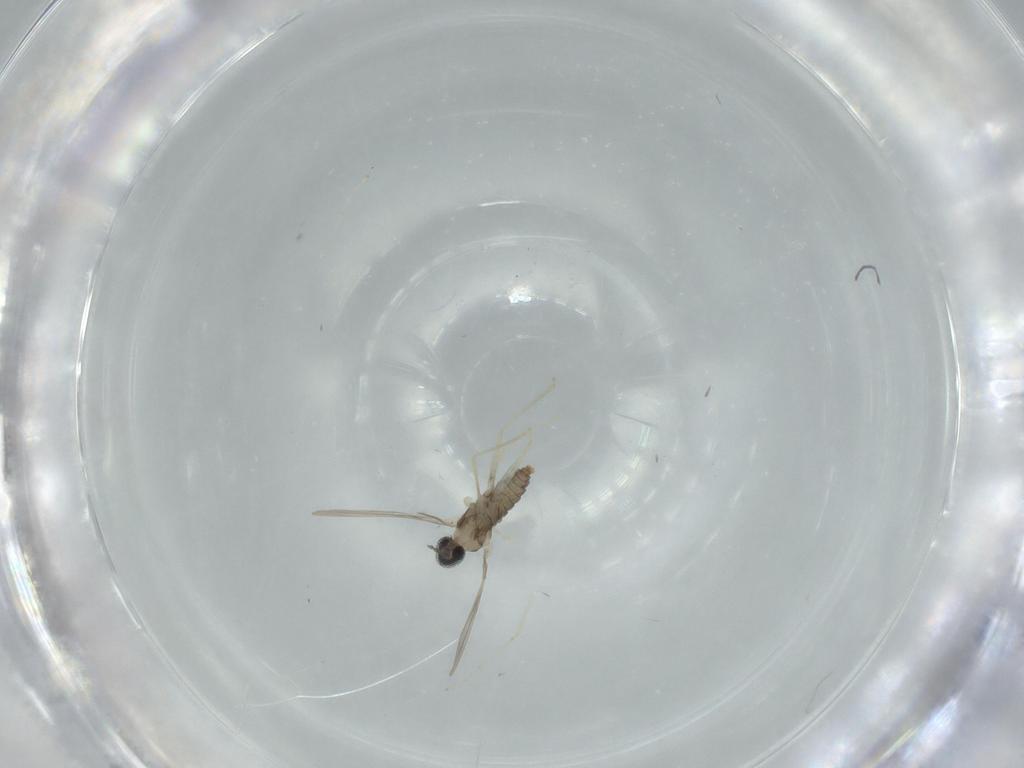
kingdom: Animalia
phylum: Arthropoda
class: Insecta
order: Diptera
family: Cecidomyiidae
